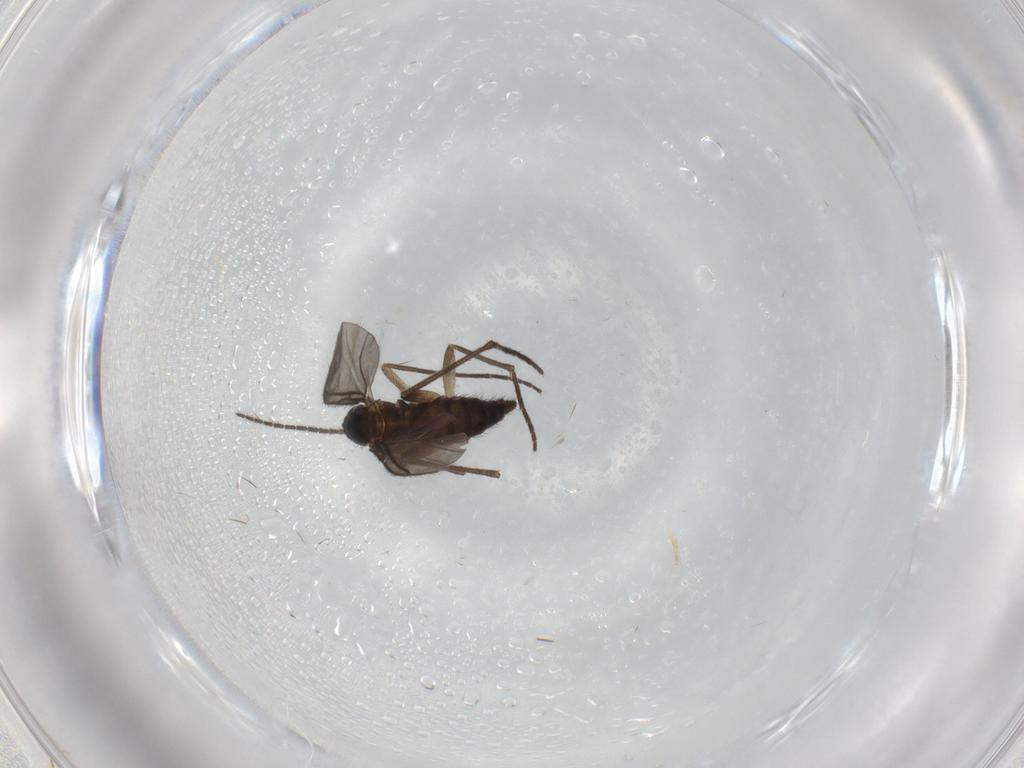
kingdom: Animalia
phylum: Arthropoda
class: Insecta
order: Diptera
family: Sciaridae
